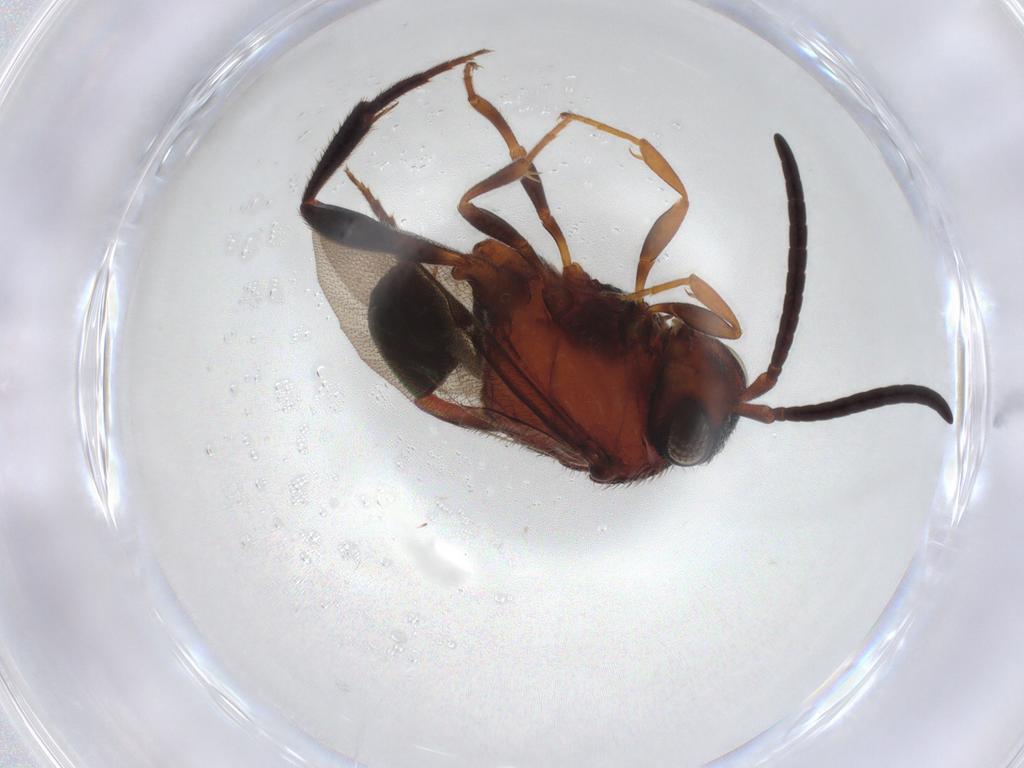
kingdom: Animalia
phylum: Arthropoda
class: Insecta
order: Hymenoptera
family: Evaniidae
